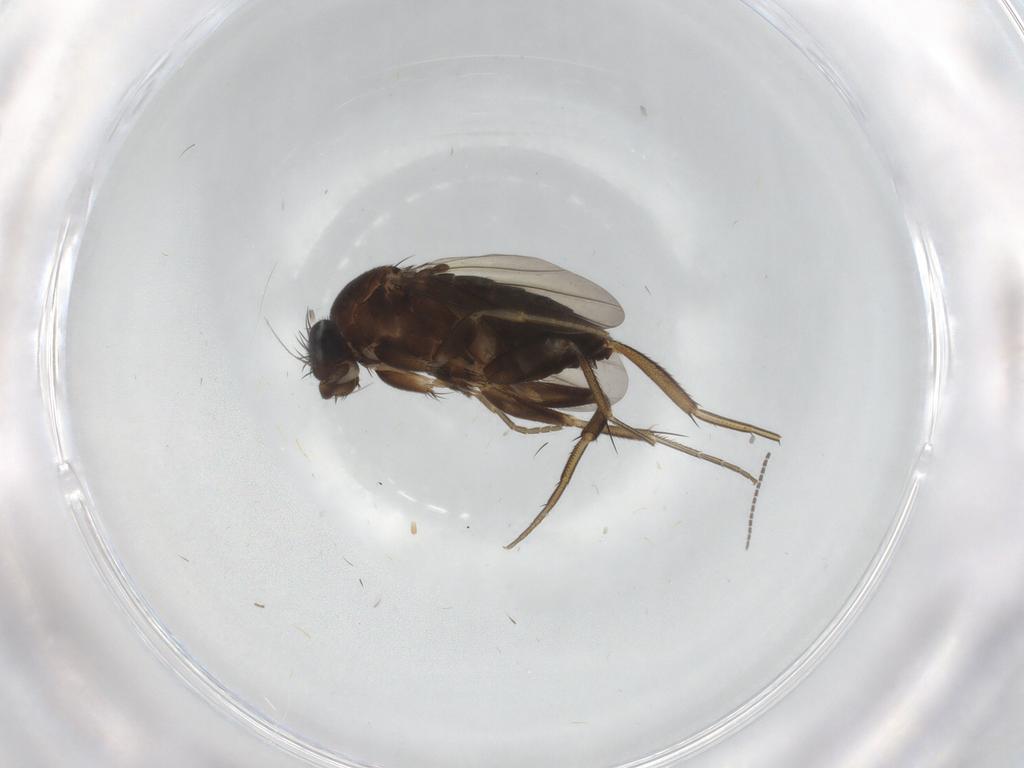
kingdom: Animalia
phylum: Arthropoda
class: Insecta
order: Diptera
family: Phoridae
